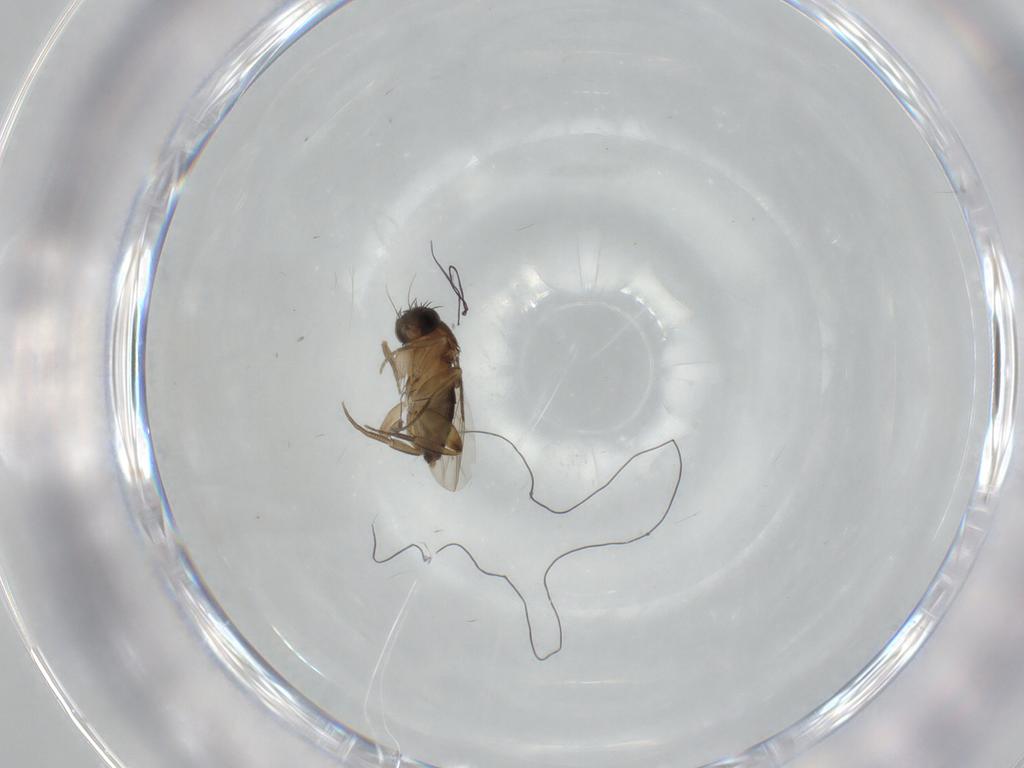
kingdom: Animalia
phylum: Arthropoda
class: Insecta
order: Diptera
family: Phoridae
